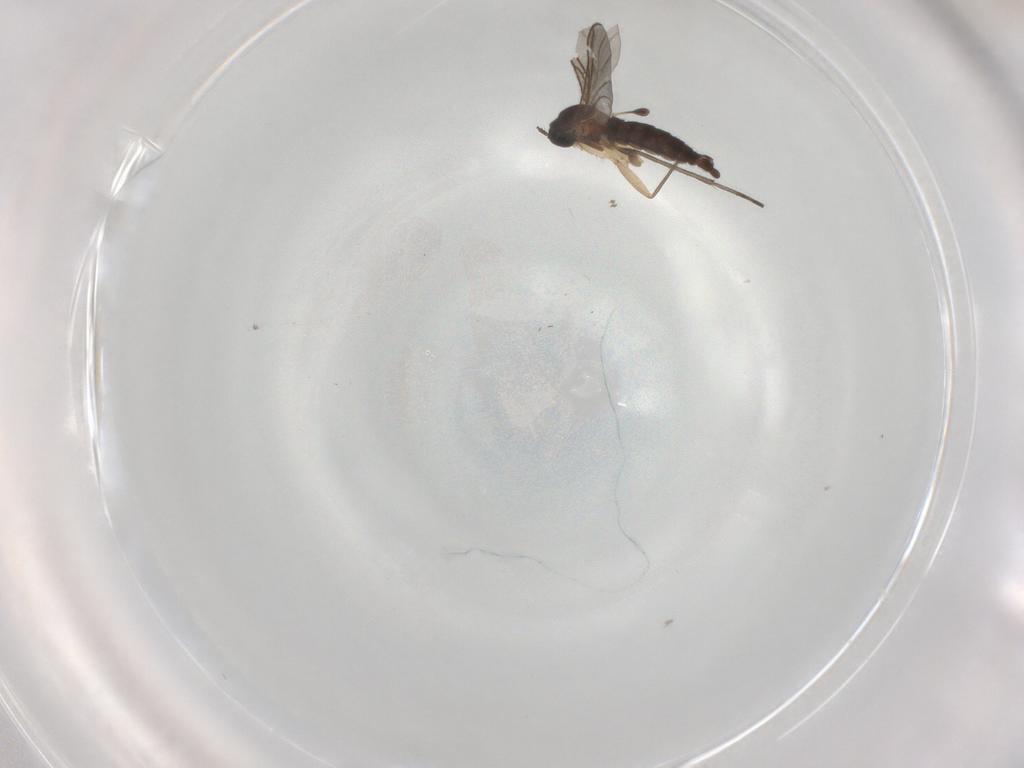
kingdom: Animalia
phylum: Arthropoda
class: Insecta
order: Diptera
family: Sciaridae
